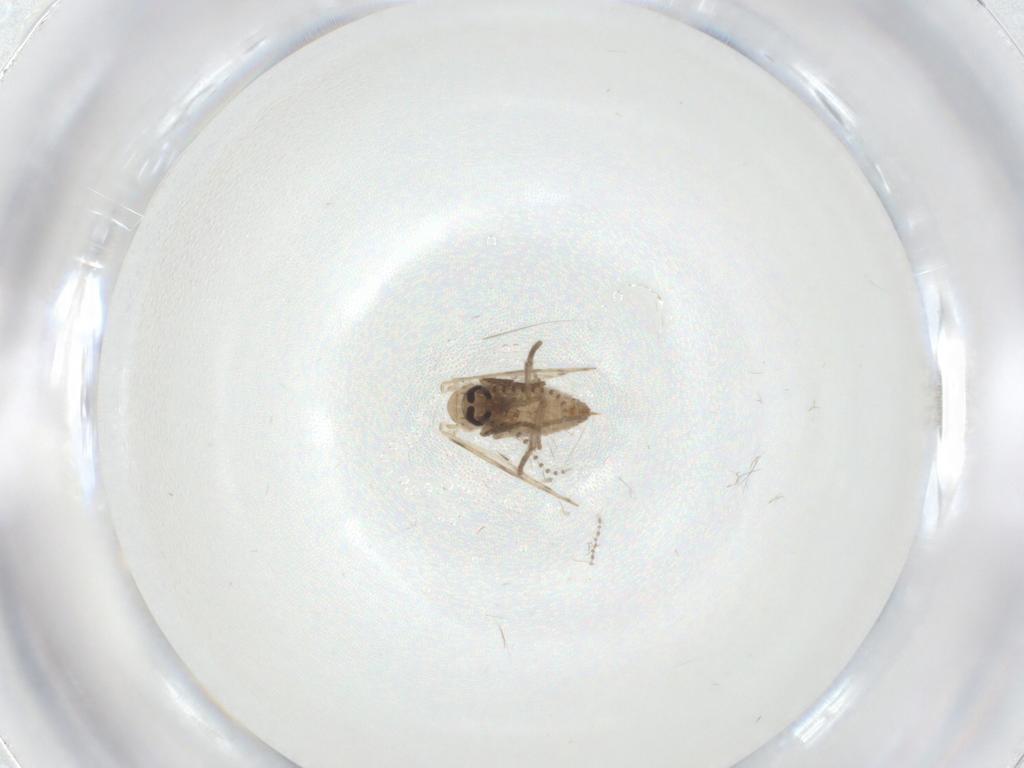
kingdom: Animalia
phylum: Arthropoda
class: Insecta
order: Diptera
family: Psychodidae
